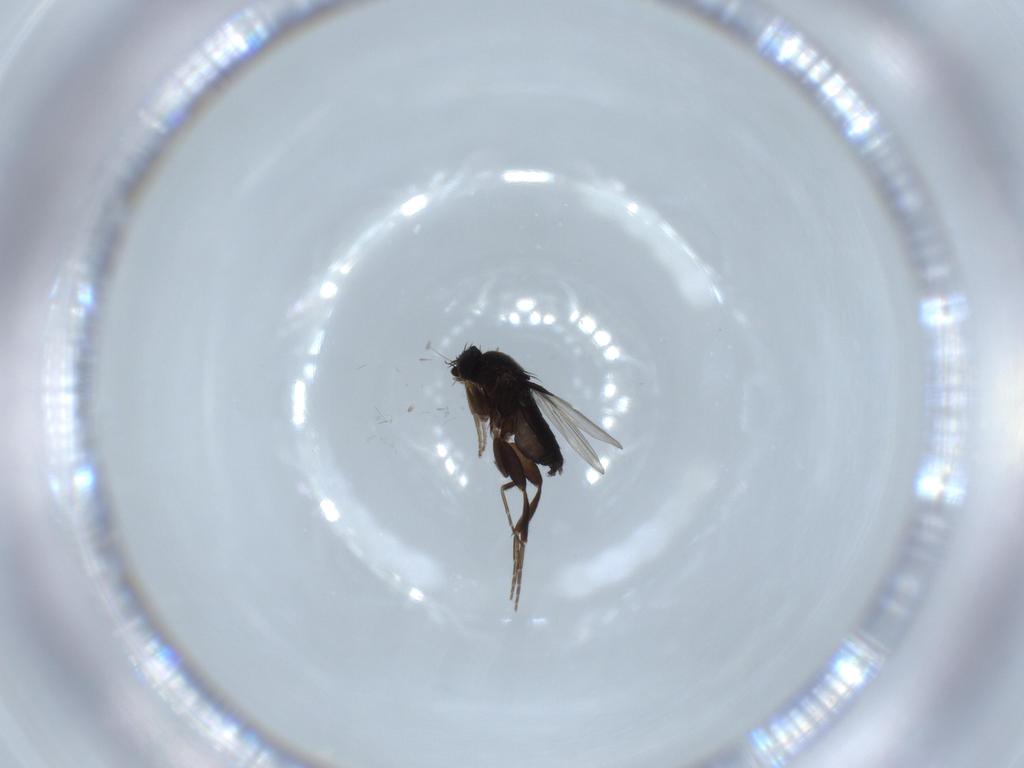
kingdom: Animalia
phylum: Arthropoda
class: Insecta
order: Diptera
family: Phoridae
